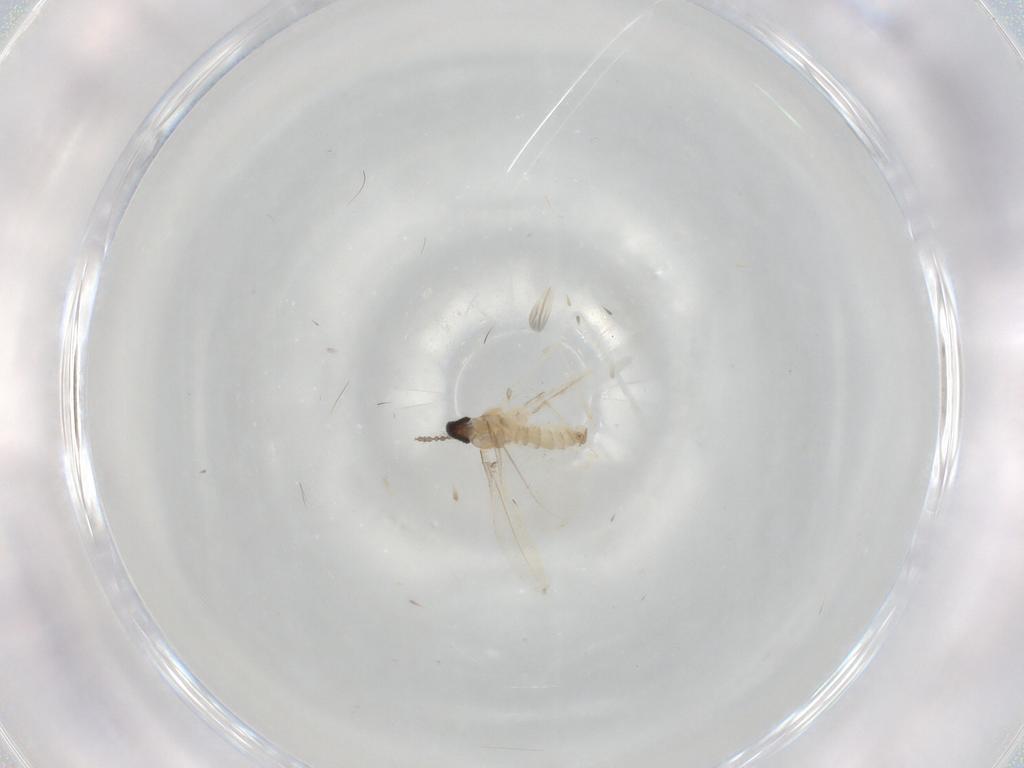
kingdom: Animalia
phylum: Arthropoda
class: Insecta
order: Diptera
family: Cecidomyiidae
